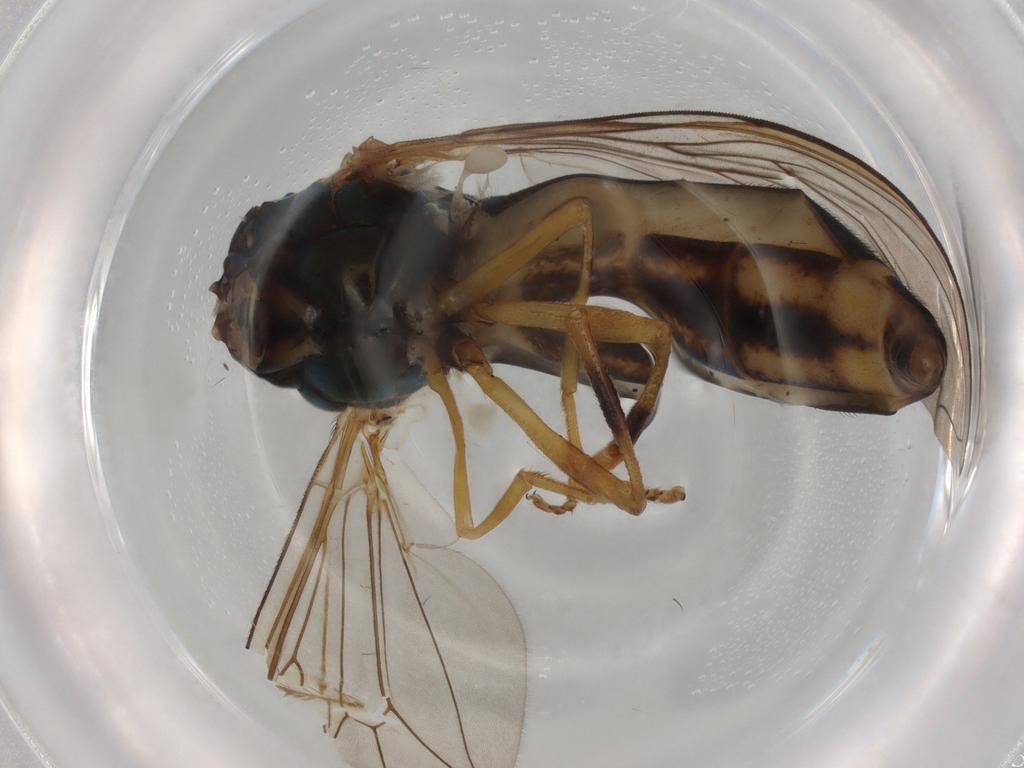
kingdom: Animalia
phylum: Arthropoda
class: Insecta
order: Diptera
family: Syrphidae
